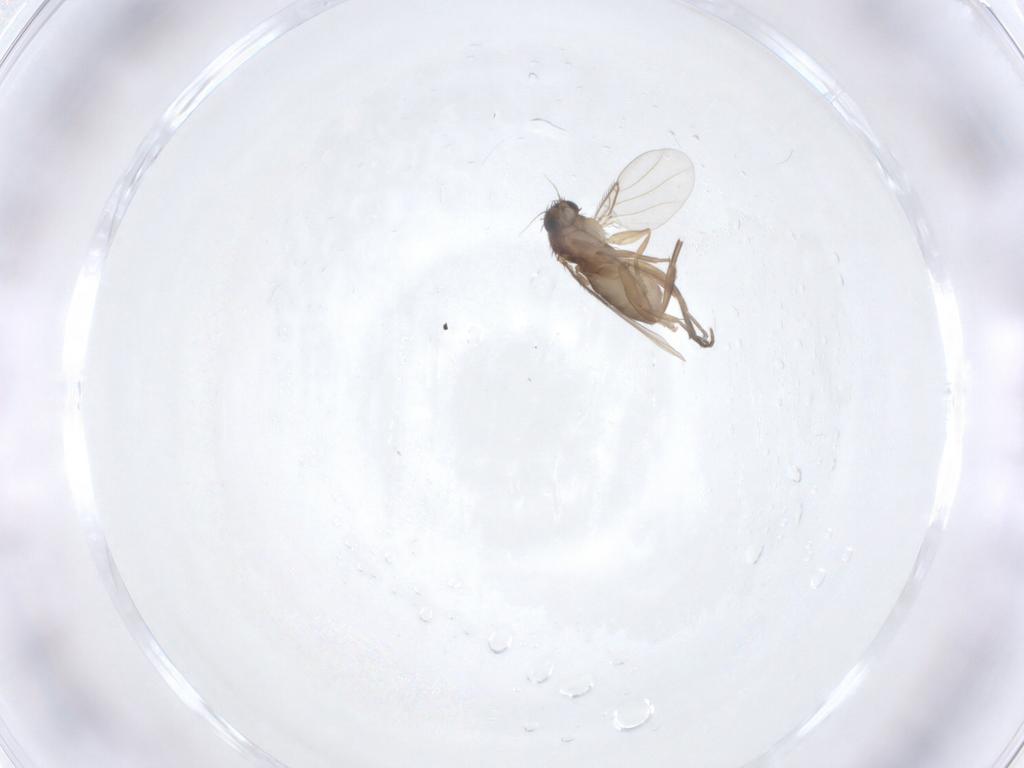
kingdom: Animalia
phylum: Arthropoda
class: Insecta
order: Diptera
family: Phoridae
